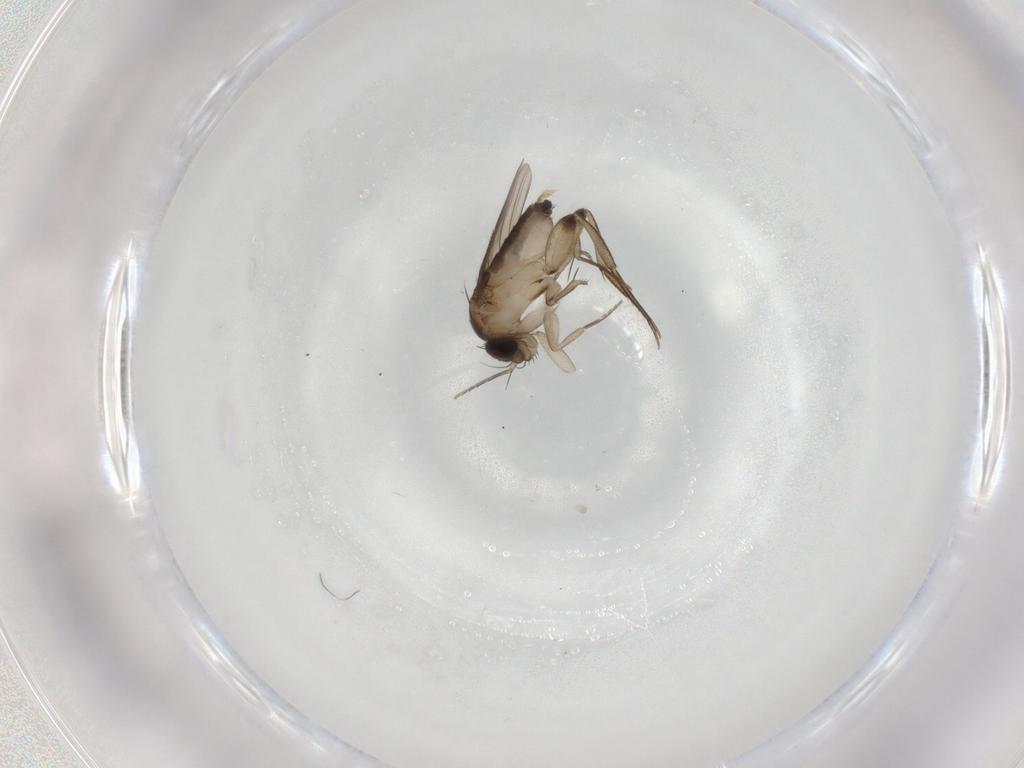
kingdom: Animalia
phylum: Arthropoda
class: Insecta
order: Diptera
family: Phoridae
